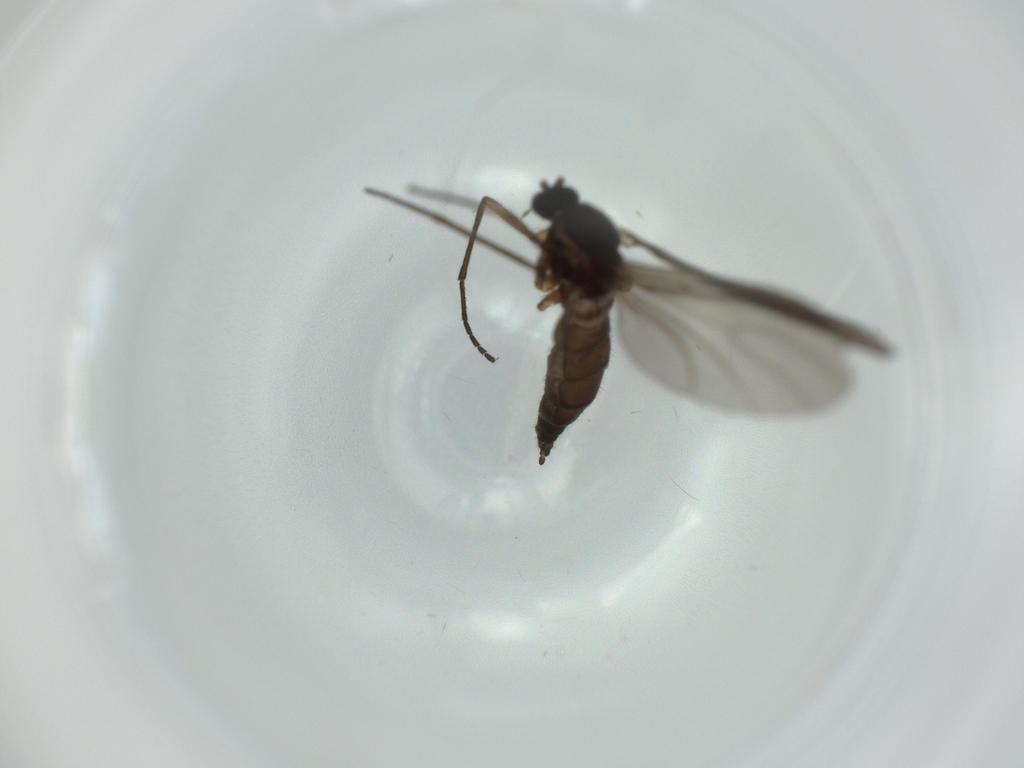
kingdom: Animalia
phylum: Arthropoda
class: Insecta
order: Diptera
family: Sciaridae
